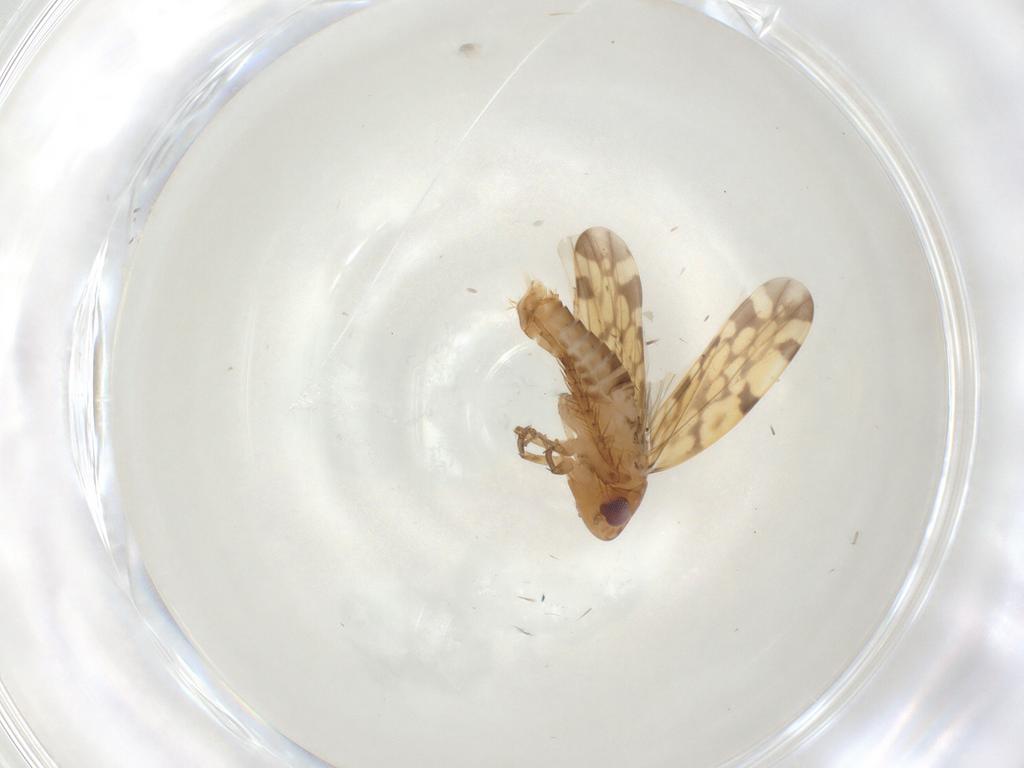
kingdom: Animalia
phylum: Arthropoda
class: Insecta
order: Hemiptera
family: Cicadellidae
